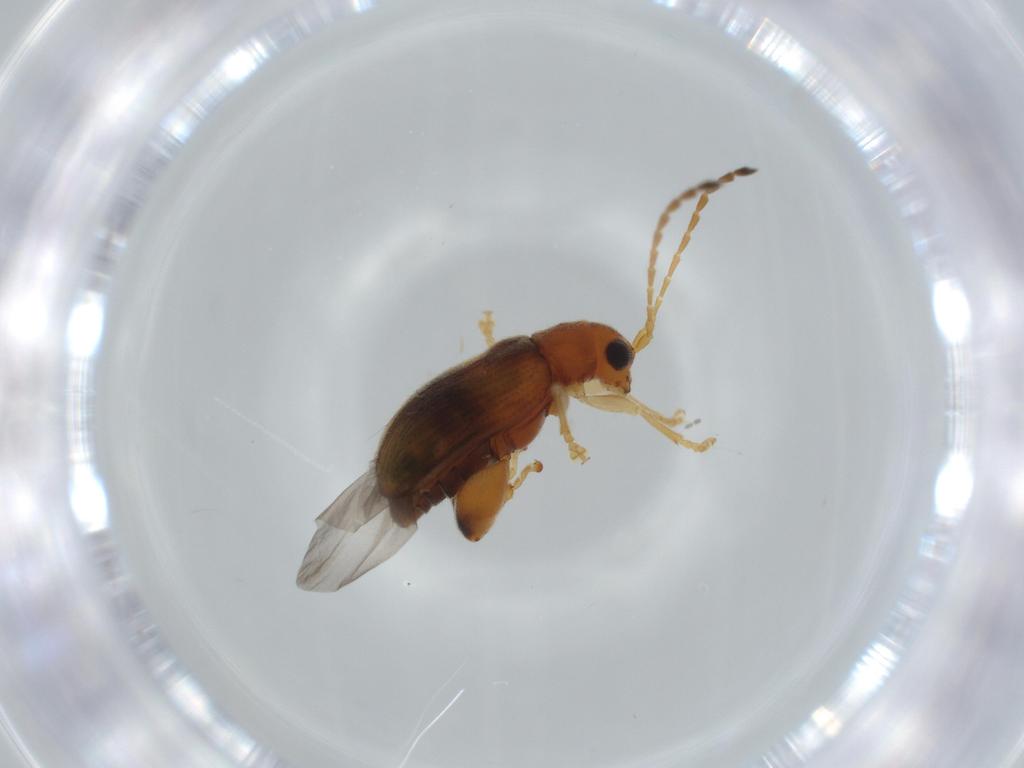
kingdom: Animalia
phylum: Arthropoda
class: Insecta
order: Coleoptera
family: Chrysomelidae
